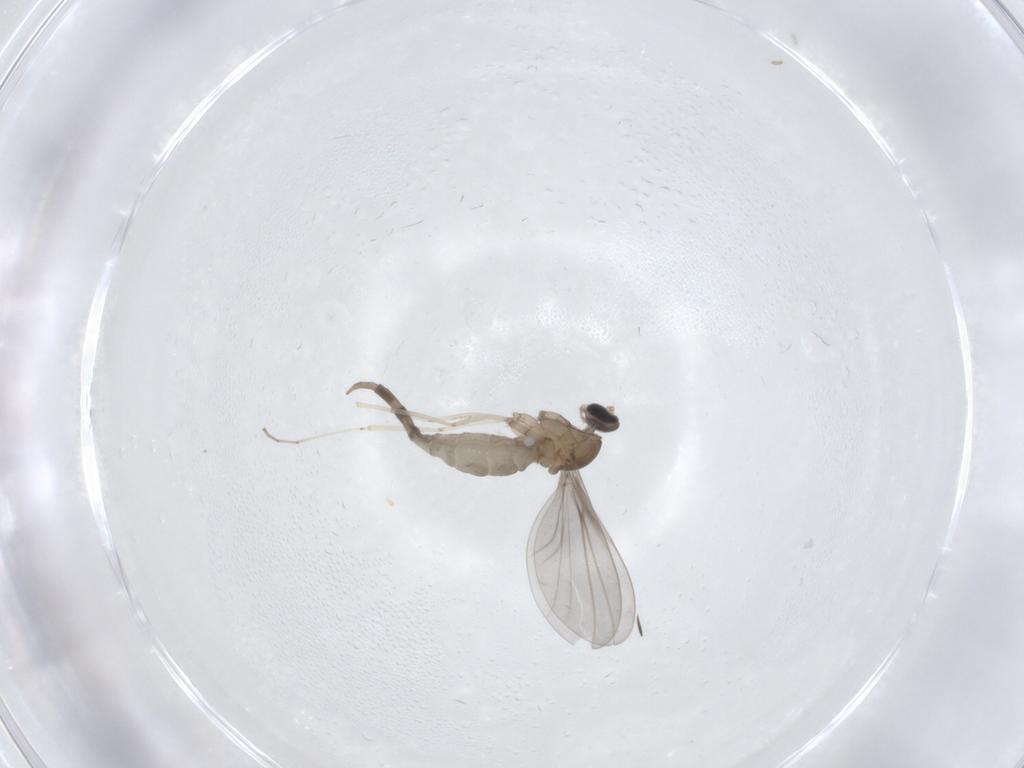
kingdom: Animalia
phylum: Arthropoda
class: Insecta
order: Diptera
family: Cecidomyiidae
